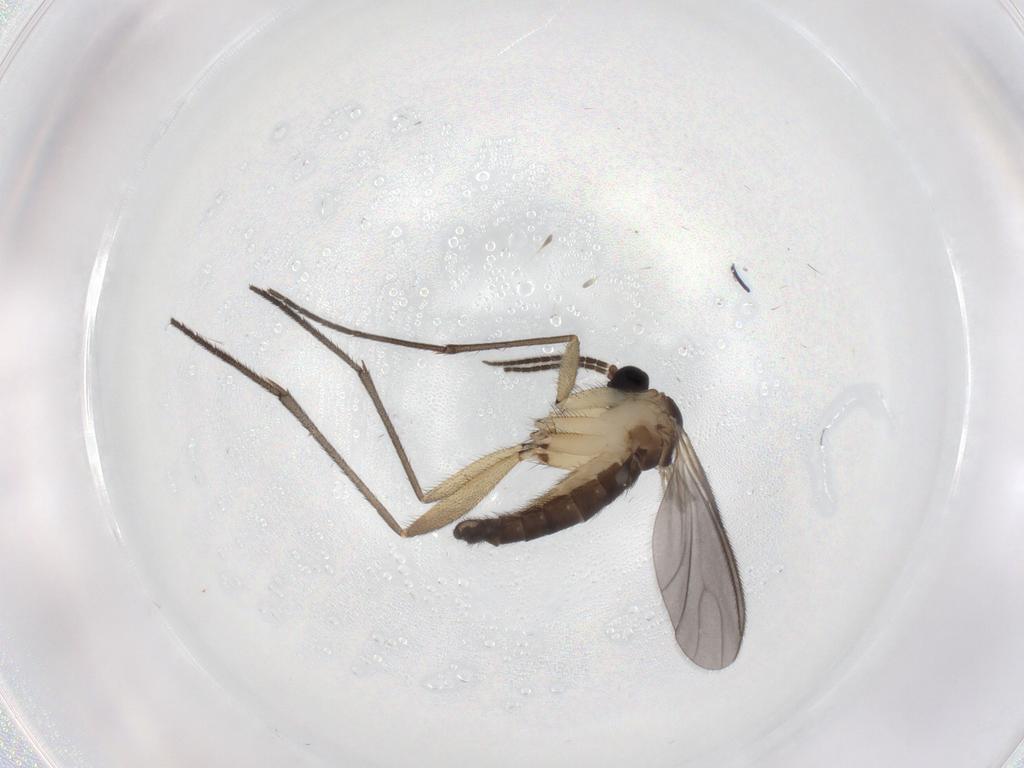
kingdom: Animalia
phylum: Arthropoda
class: Insecta
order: Diptera
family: Sciaridae
